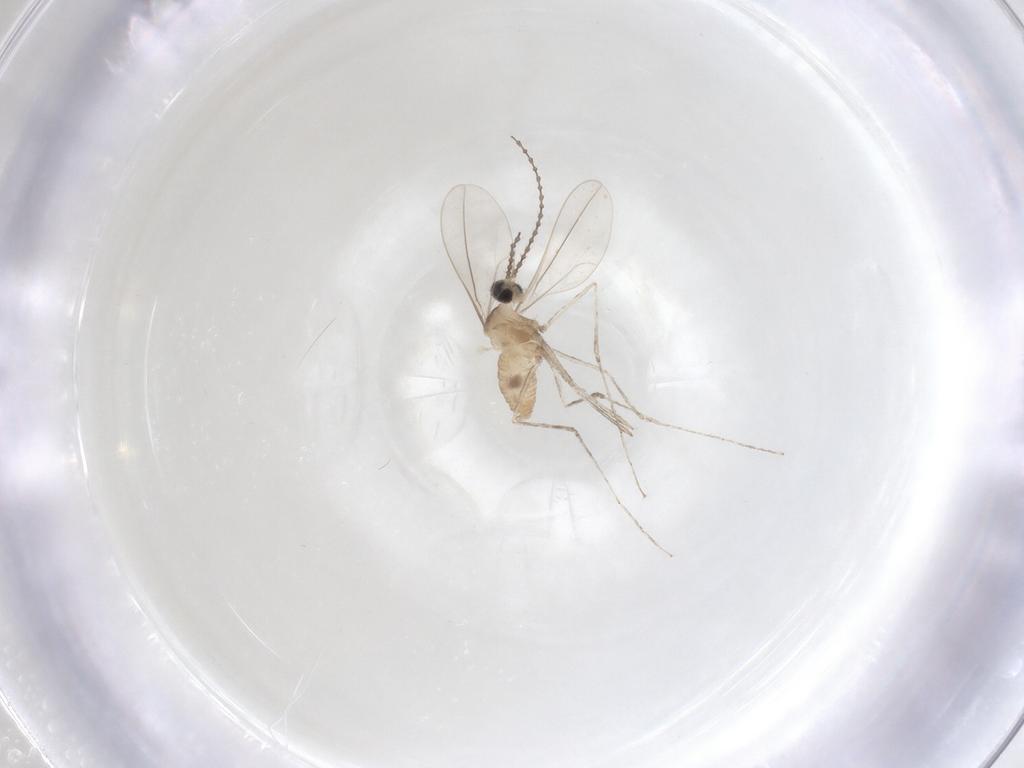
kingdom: Animalia
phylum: Arthropoda
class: Insecta
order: Diptera
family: Cecidomyiidae
